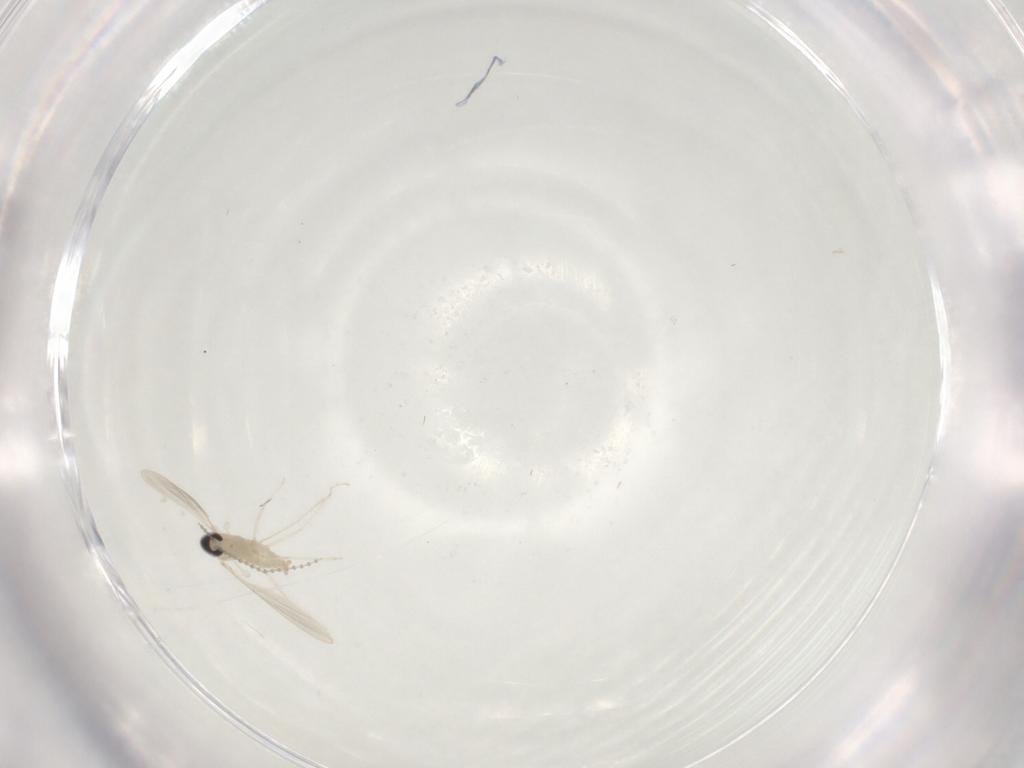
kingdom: Animalia
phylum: Arthropoda
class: Insecta
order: Diptera
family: Cecidomyiidae
